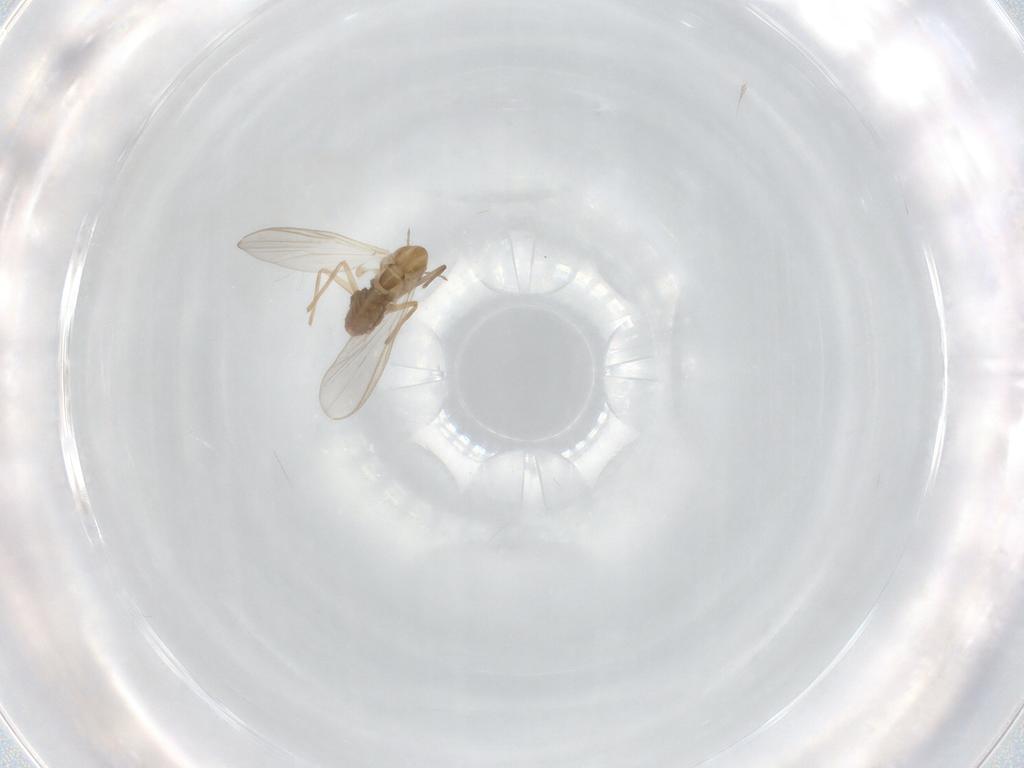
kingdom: Animalia
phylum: Arthropoda
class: Insecta
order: Diptera
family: Chironomidae
